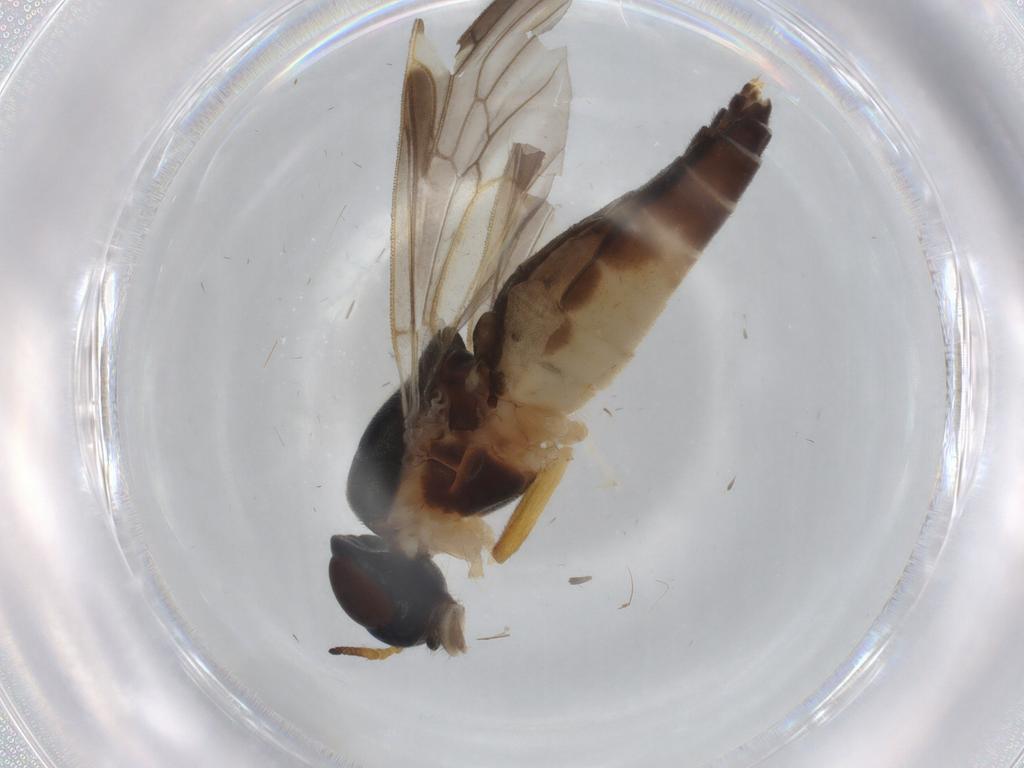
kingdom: Animalia
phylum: Arthropoda
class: Insecta
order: Diptera
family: Stratiomyidae
